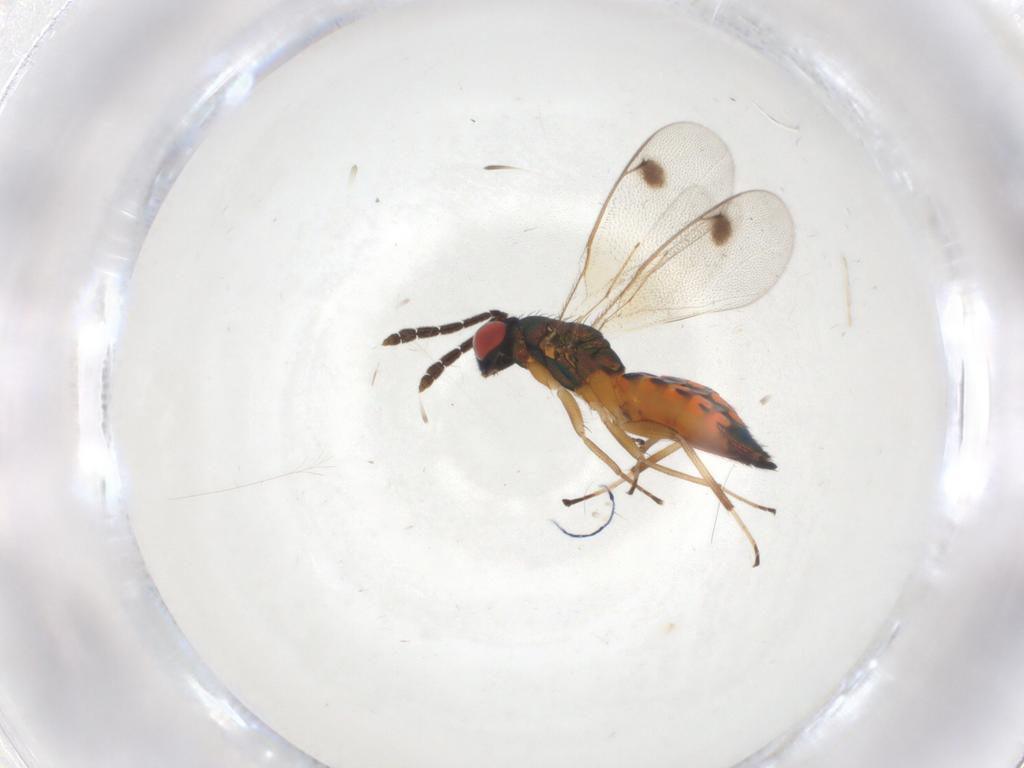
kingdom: Animalia
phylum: Arthropoda
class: Insecta
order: Hymenoptera
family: Eulophidae
